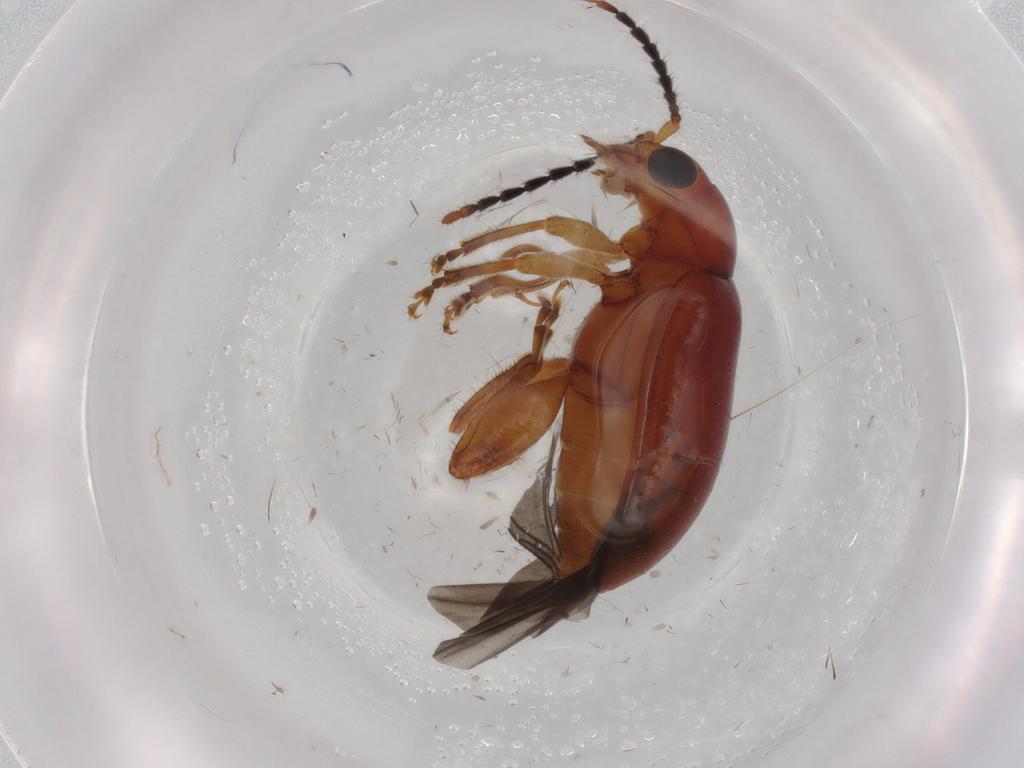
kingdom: Animalia
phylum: Arthropoda
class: Insecta
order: Coleoptera
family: Chrysomelidae
